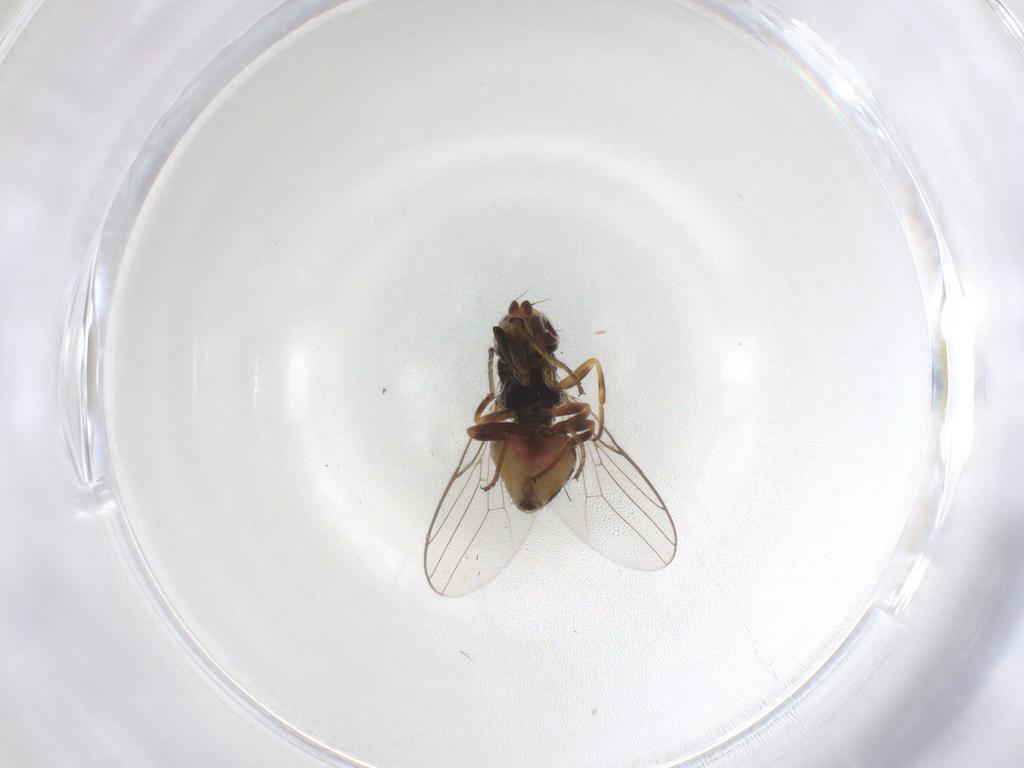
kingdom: Animalia
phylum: Arthropoda
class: Insecta
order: Diptera
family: Chloropidae
